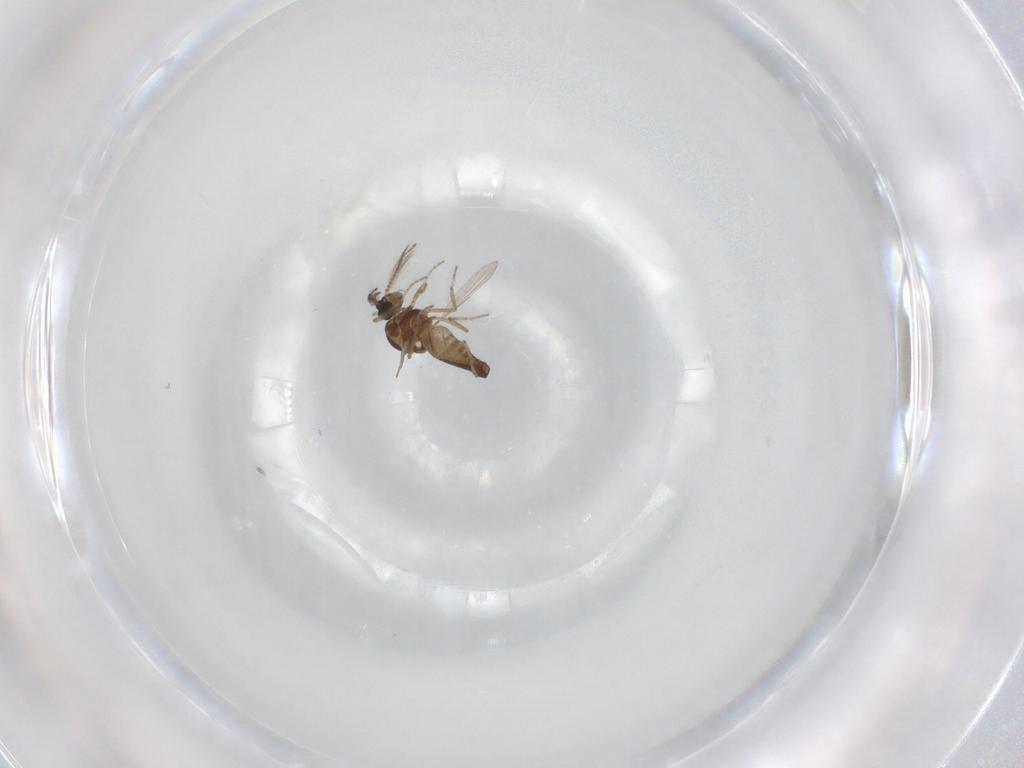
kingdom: Animalia
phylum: Arthropoda
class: Insecta
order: Diptera
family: Ceratopogonidae
